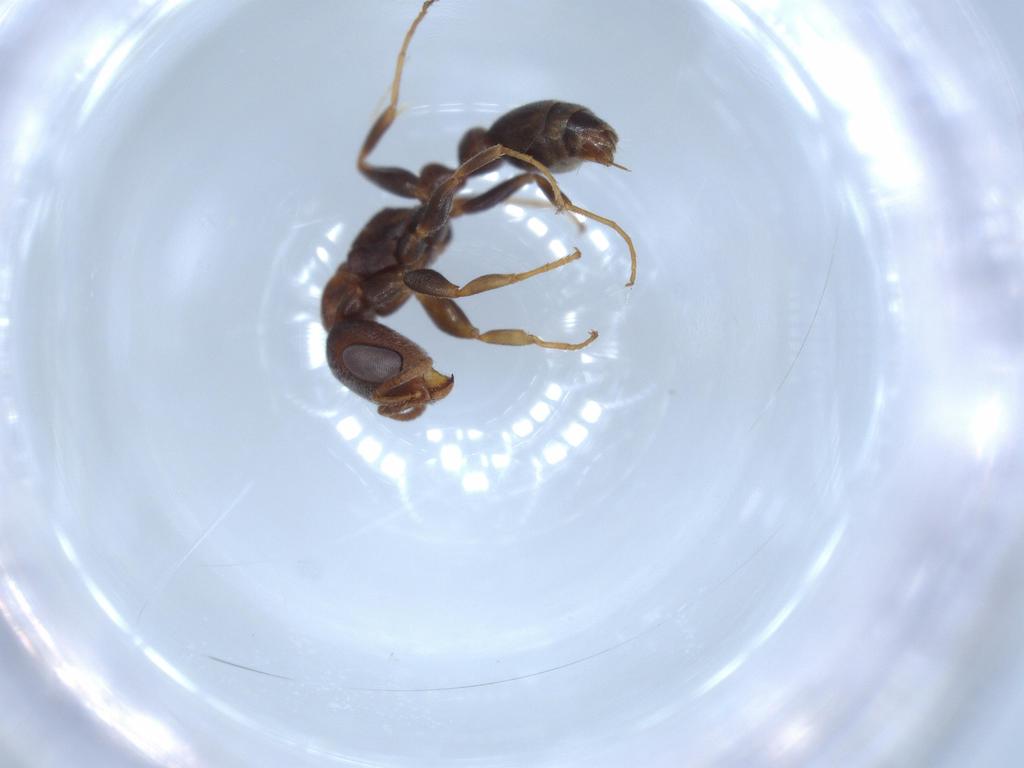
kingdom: Animalia
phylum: Arthropoda
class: Insecta
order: Hymenoptera
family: Formicidae
